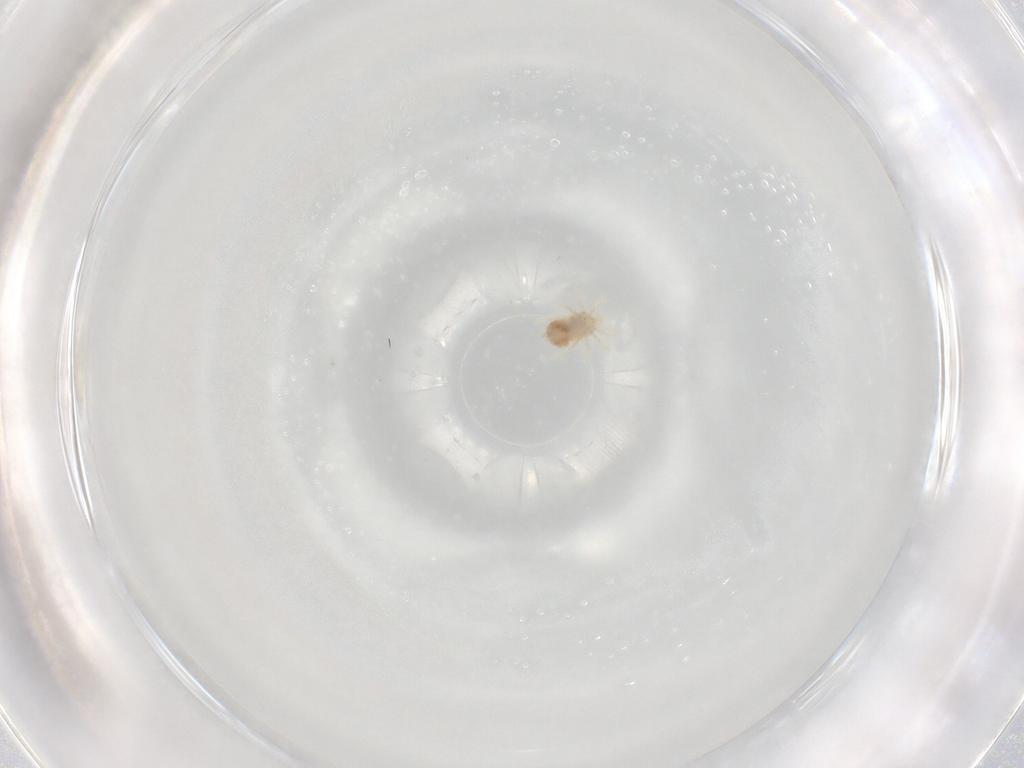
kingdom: Animalia
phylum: Arthropoda
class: Arachnida
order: Trombidiformes
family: Anystidae
